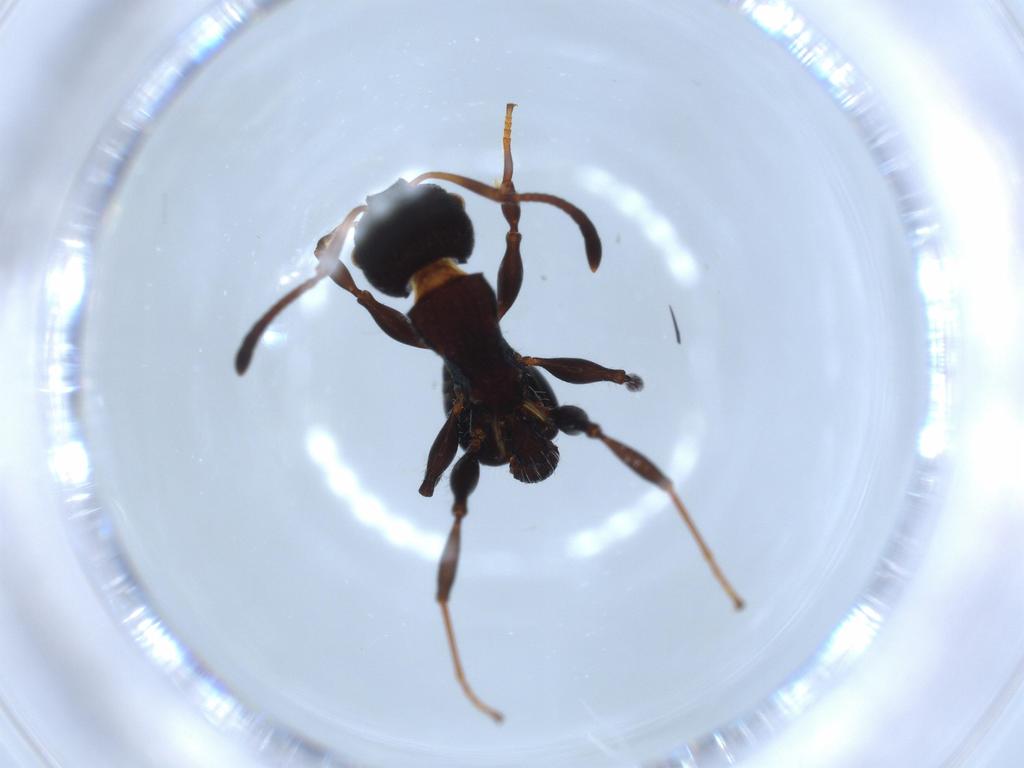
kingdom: Animalia
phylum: Arthropoda
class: Insecta
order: Hymenoptera
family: Formicidae
